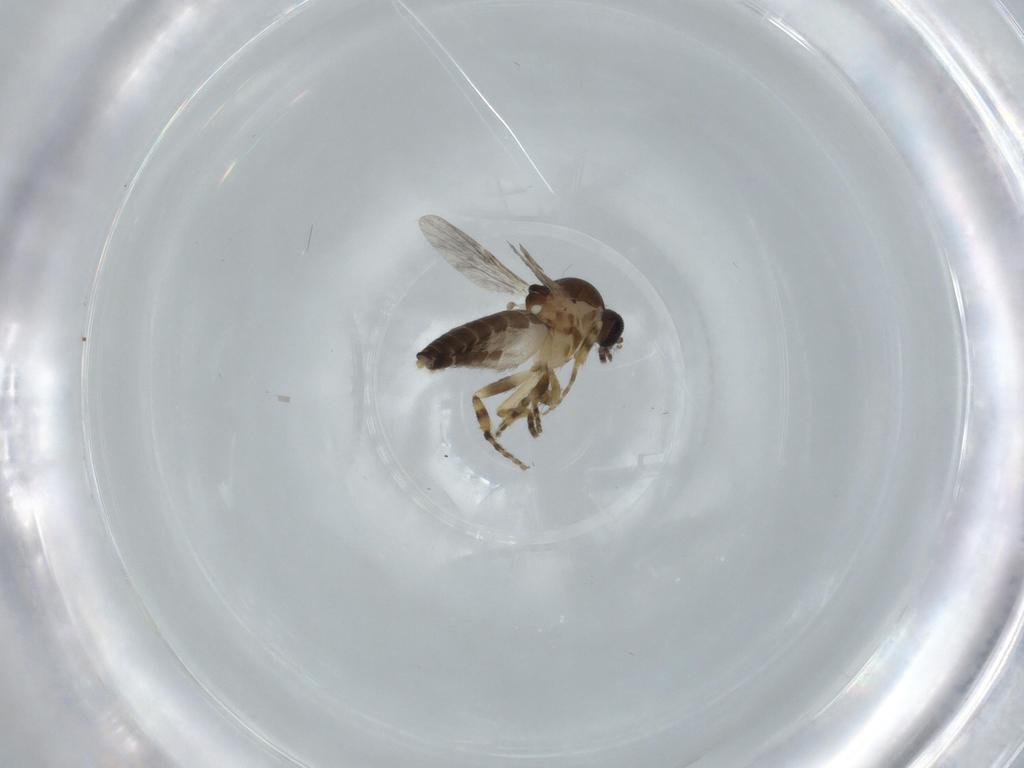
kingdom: Animalia
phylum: Arthropoda
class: Insecta
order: Diptera
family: Ceratopogonidae
